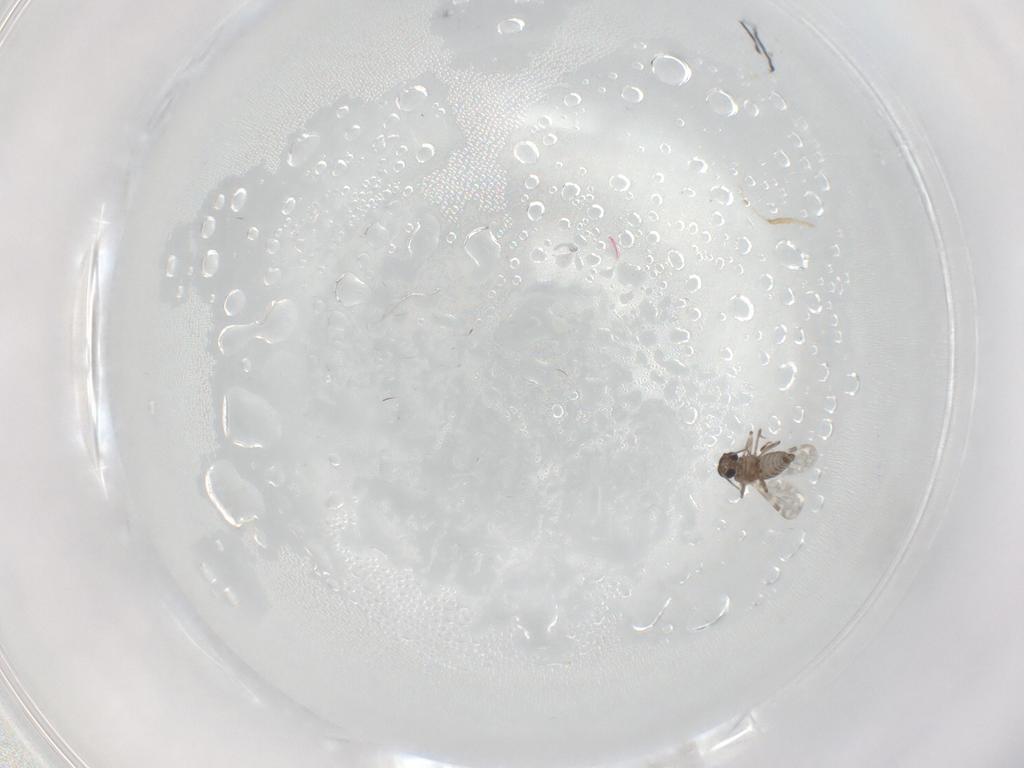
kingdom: Animalia
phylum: Arthropoda
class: Insecta
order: Diptera
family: Ceratopogonidae
